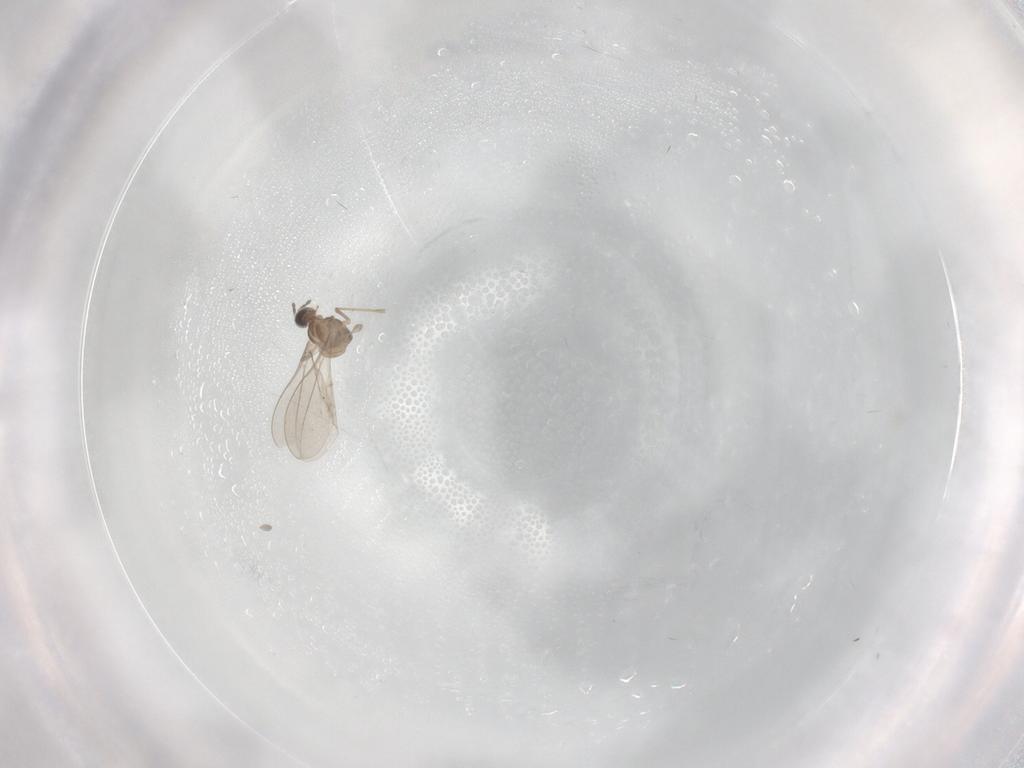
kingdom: Animalia
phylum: Arthropoda
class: Insecta
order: Diptera
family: Cecidomyiidae
